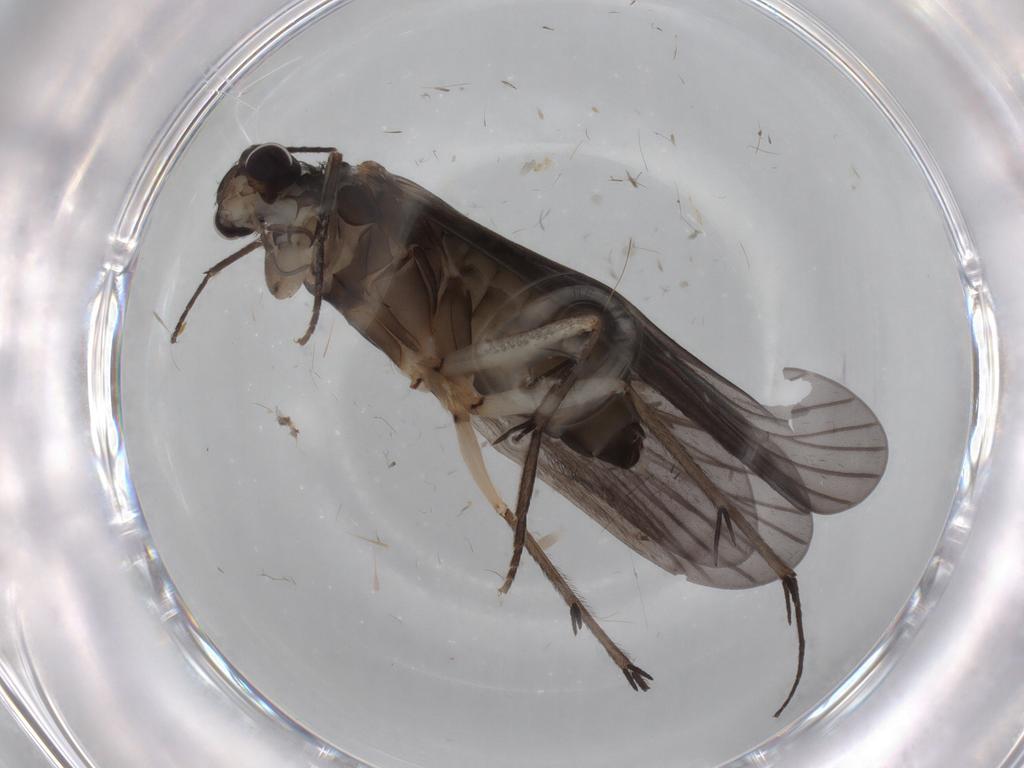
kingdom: Animalia
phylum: Arthropoda
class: Insecta
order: Trichoptera
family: Philopotamidae
